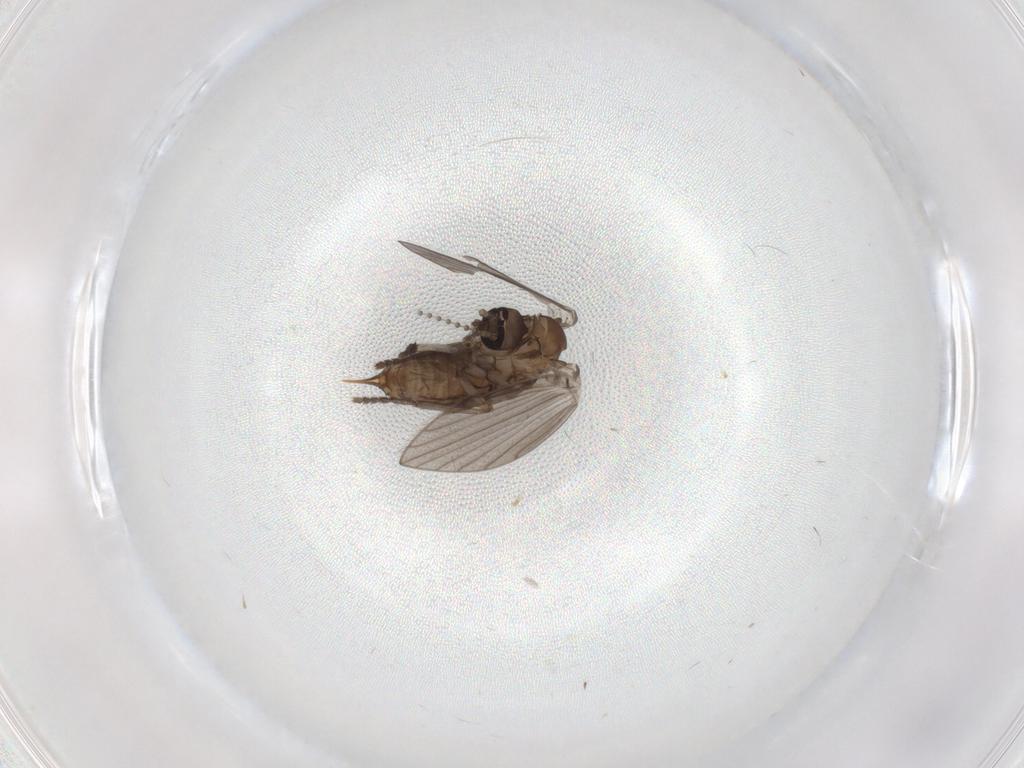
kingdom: Animalia
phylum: Arthropoda
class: Insecta
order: Diptera
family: Psychodidae
